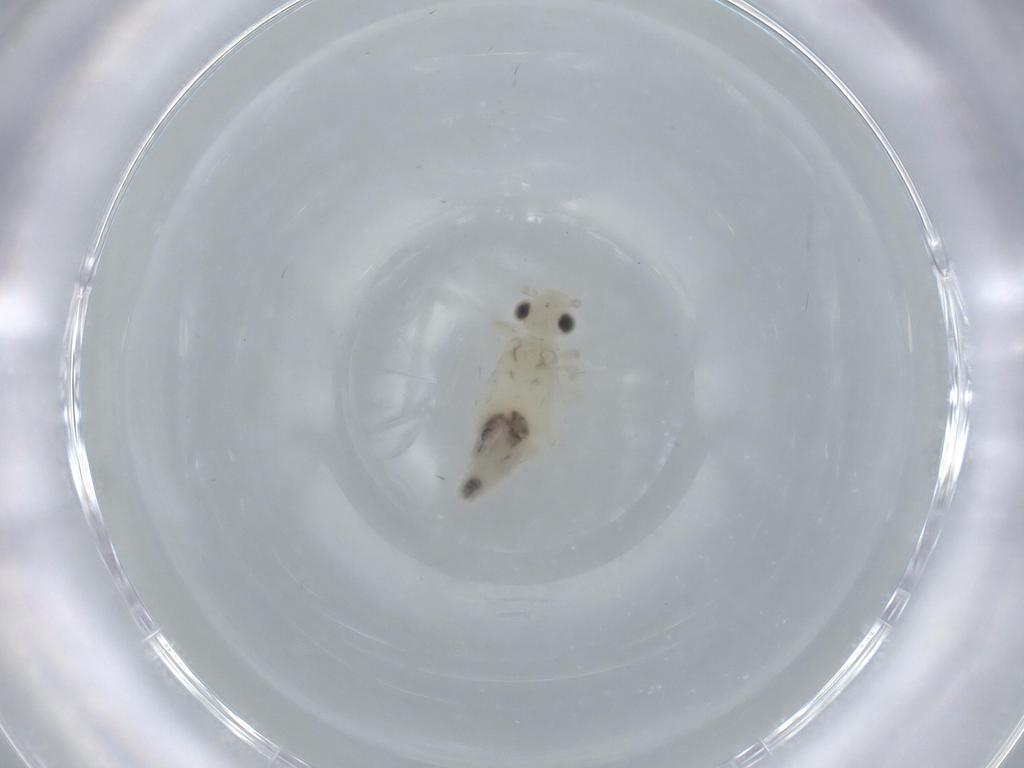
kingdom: Animalia
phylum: Arthropoda
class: Insecta
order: Psocodea
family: Caeciliusidae
